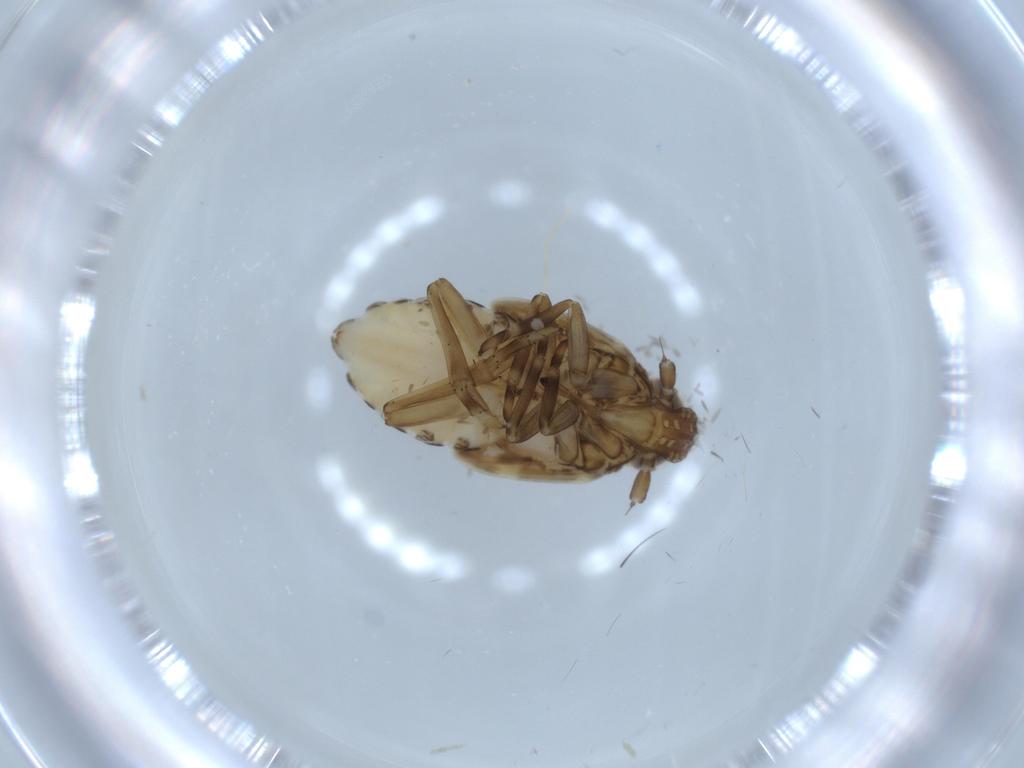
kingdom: Animalia
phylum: Arthropoda
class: Insecta
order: Hemiptera
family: Delphacidae
